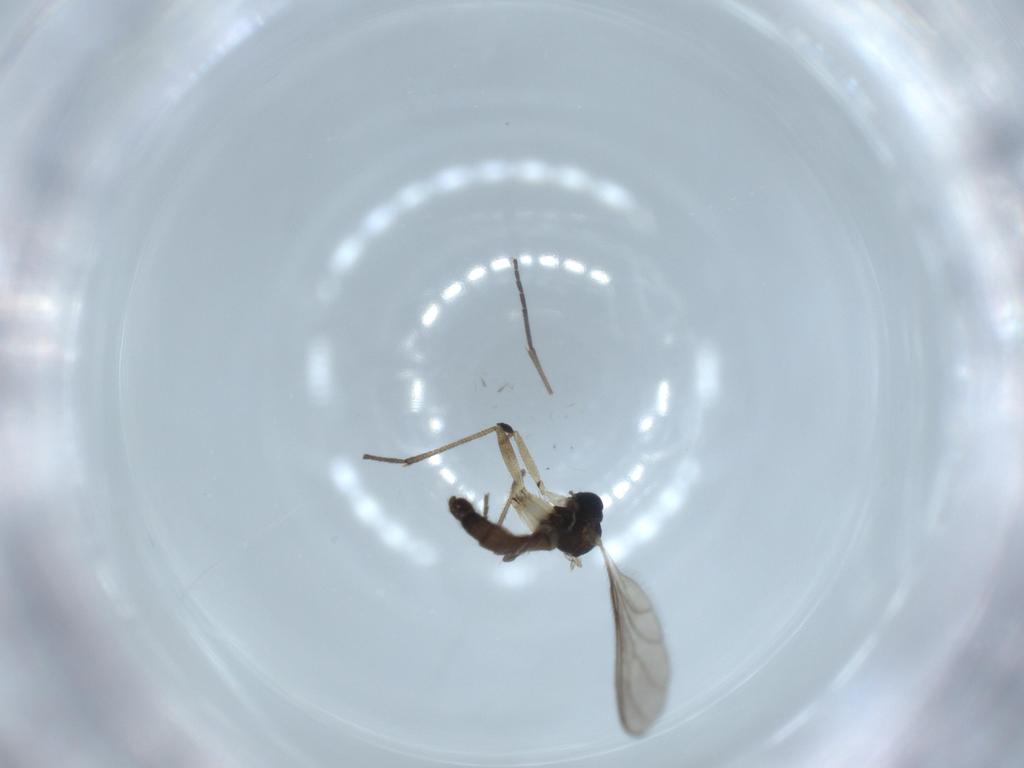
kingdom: Animalia
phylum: Arthropoda
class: Insecta
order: Diptera
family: Sciaridae
